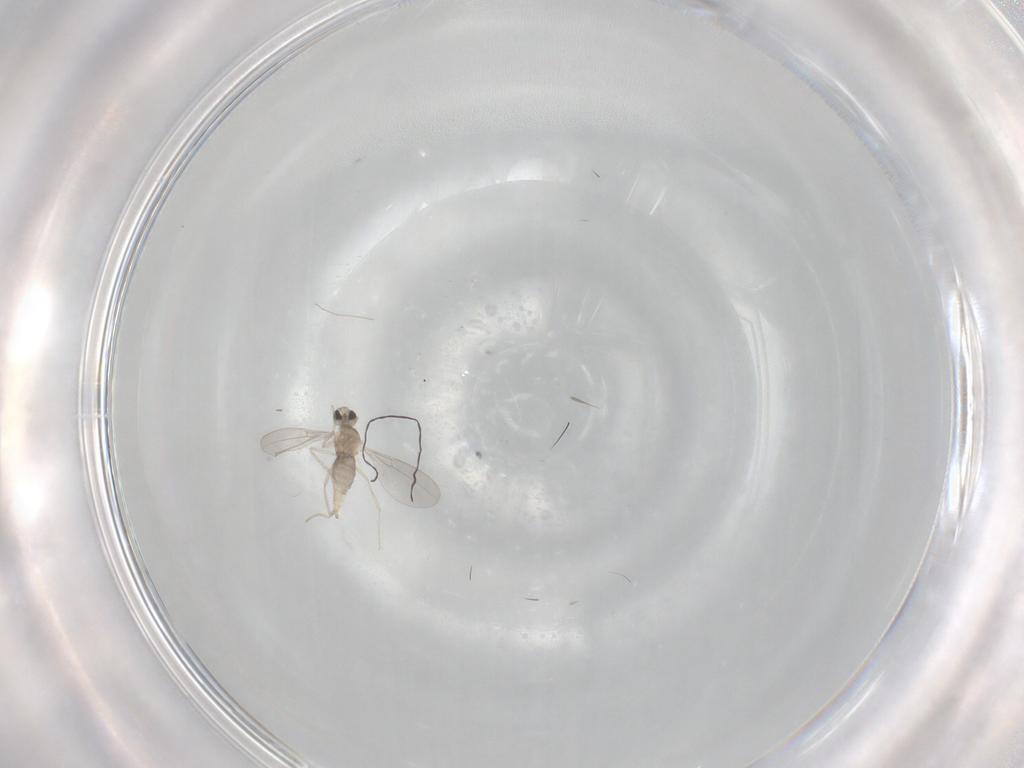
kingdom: Animalia
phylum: Arthropoda
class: Insecta
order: Diptera
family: Cecidomyiidae
